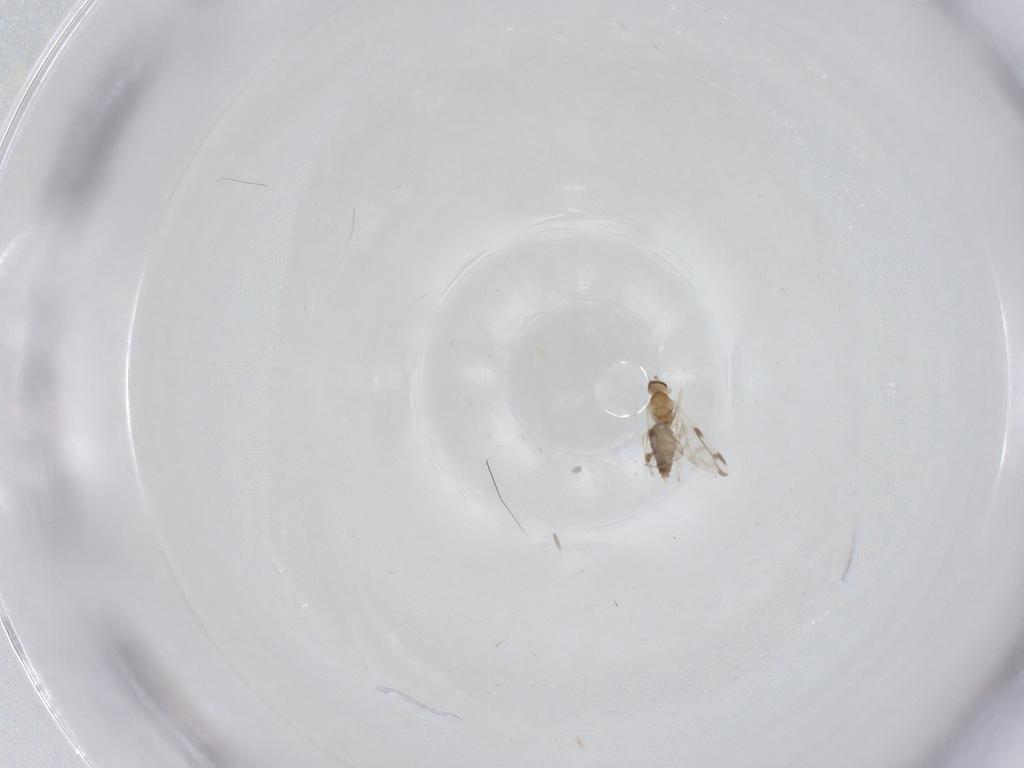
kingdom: Animalia
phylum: Arthropoda
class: Insecta
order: Diptera
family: Cecidomyiidae
